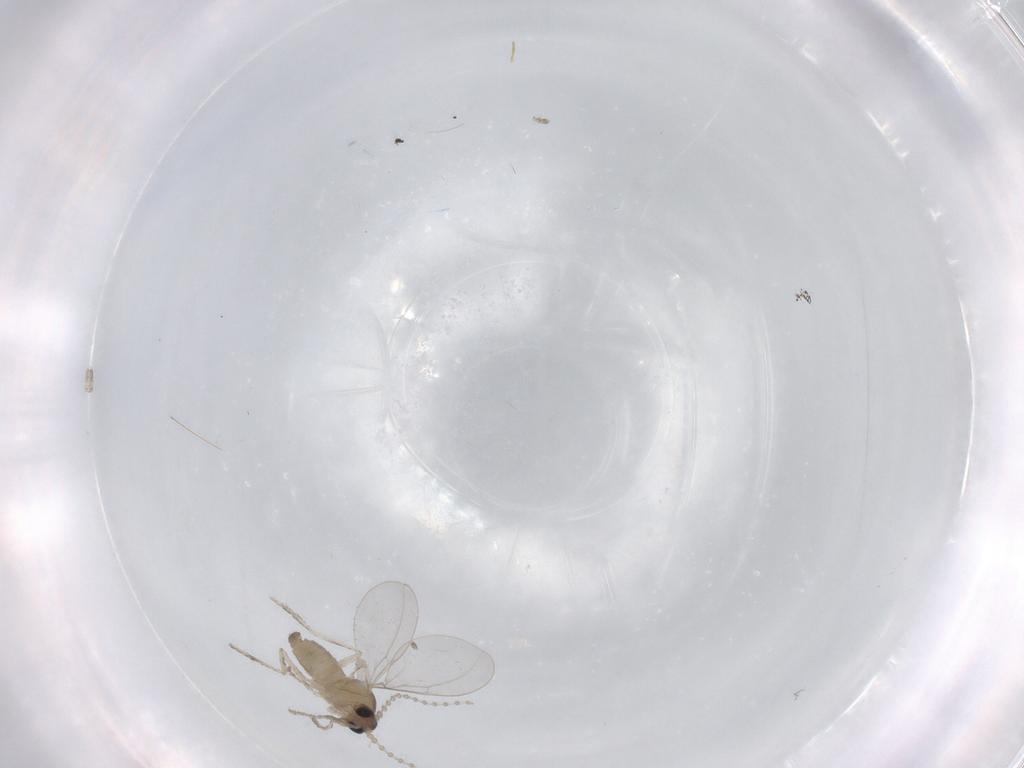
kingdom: Animalia
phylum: Arthropoda
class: Insecta
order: Diptera
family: Cecidomyiidae
